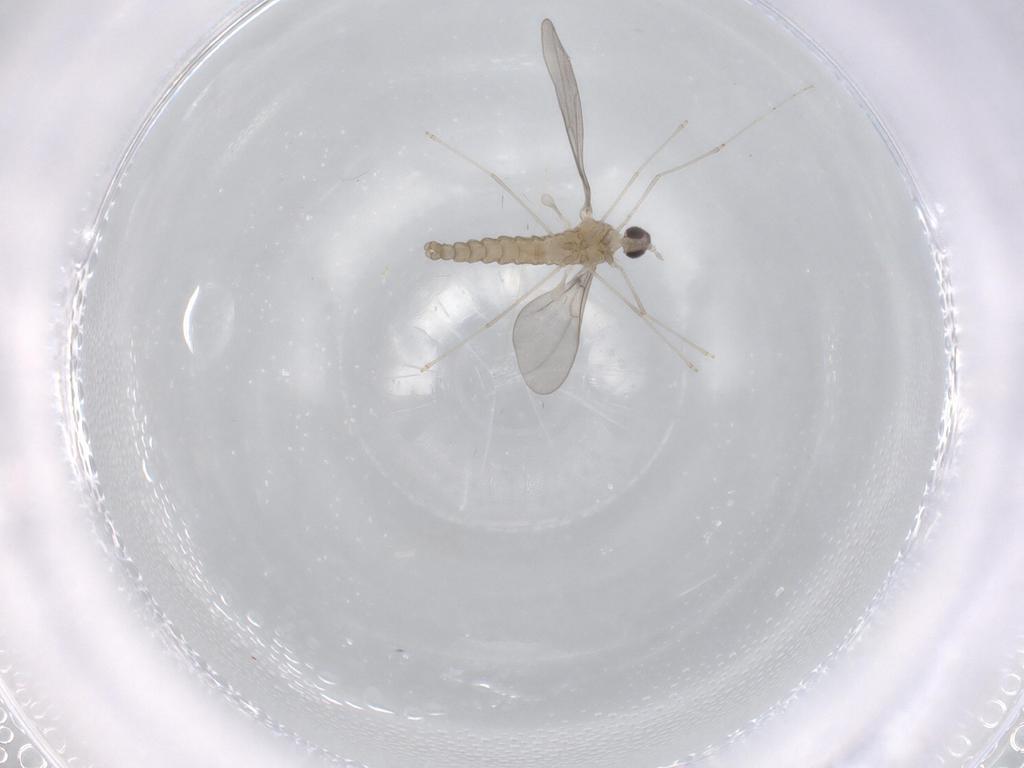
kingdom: Animalia
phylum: Arthropoda
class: Insecta
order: Diptera
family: Cecidomyiidae
